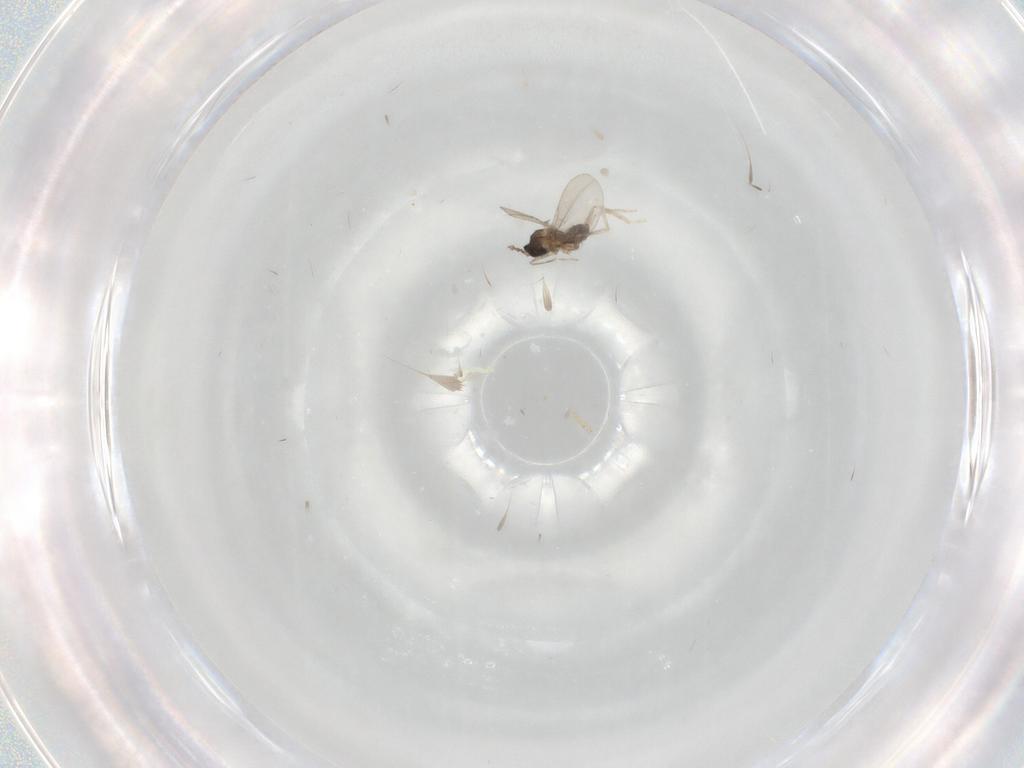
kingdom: Animalia
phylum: Arthropoda
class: Insecta
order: Diptera
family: Cecidomyiidae
